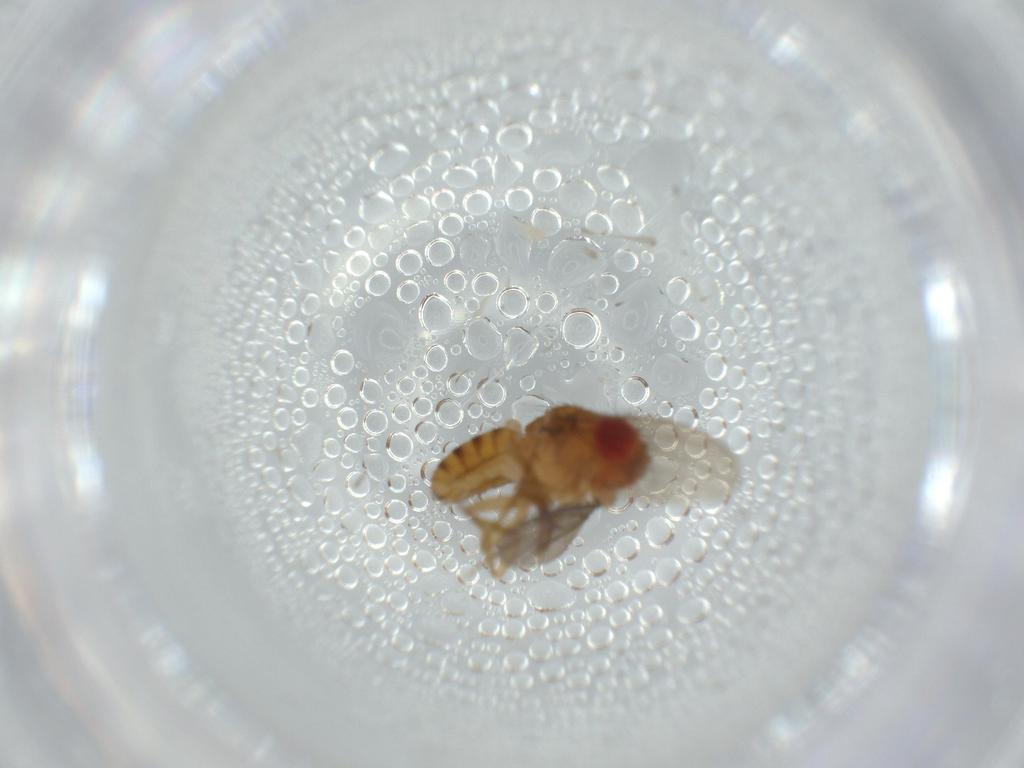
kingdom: Animalia
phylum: Arthropoda
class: Insecta
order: Diptera
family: Drosophilidae
